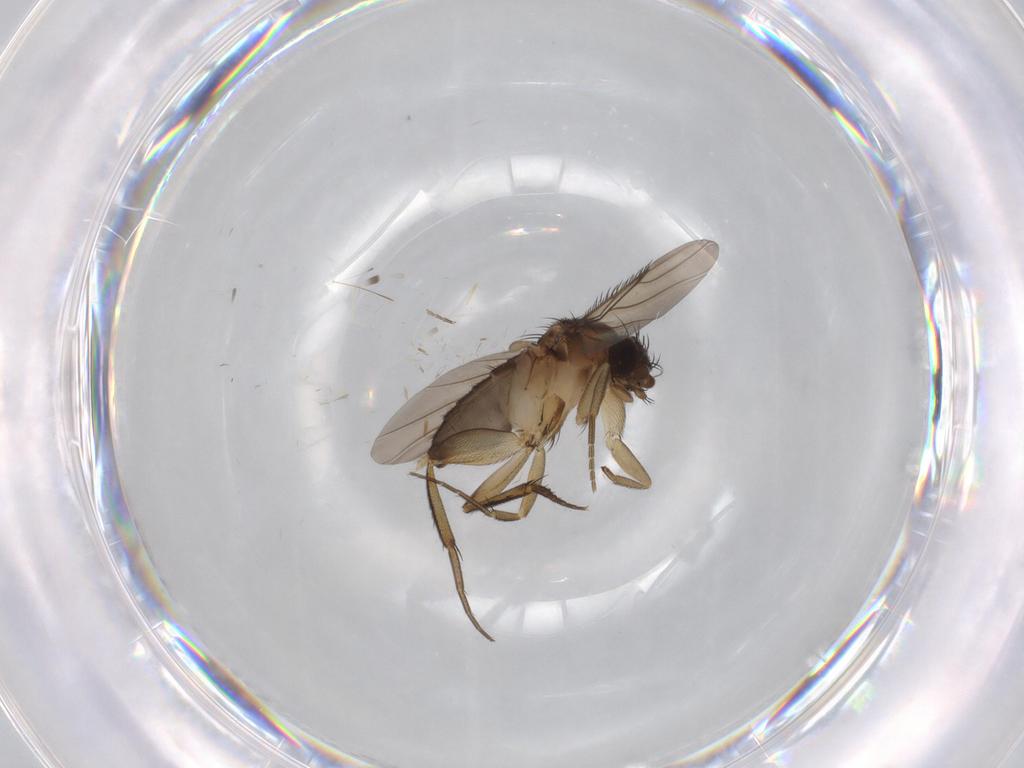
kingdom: Animalia
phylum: Arthropoda
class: Insecta
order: Diptera
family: Phoridae
